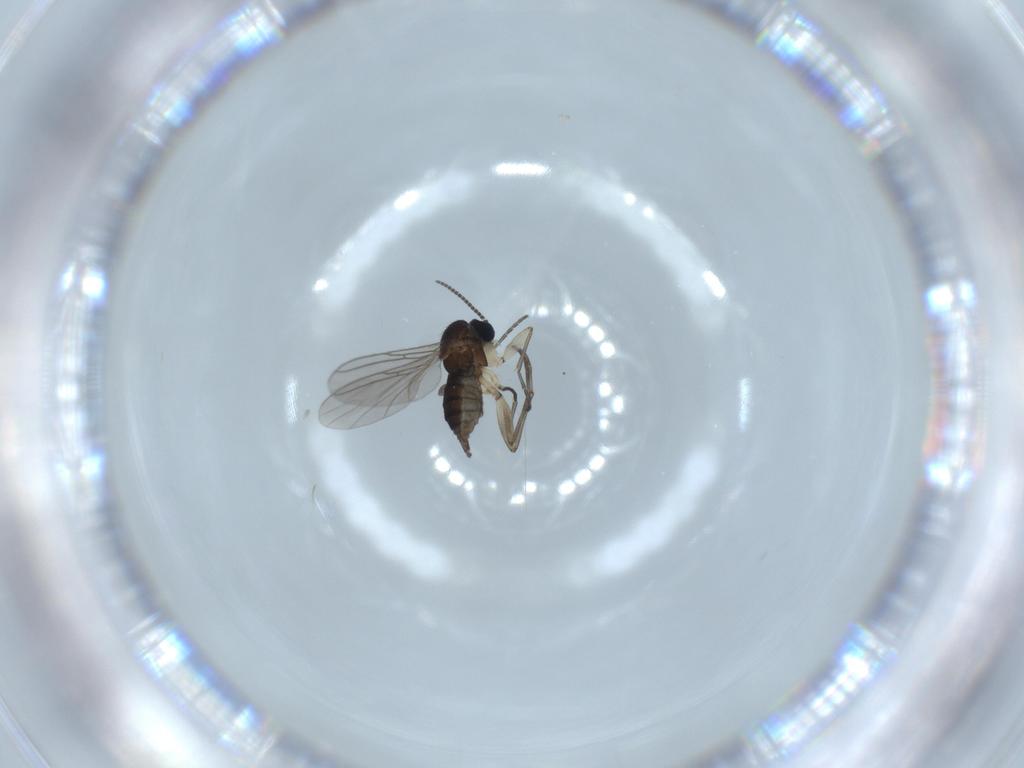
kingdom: Animalia
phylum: Arthropoda
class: Insecta
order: Diptera
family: Sciaridae
